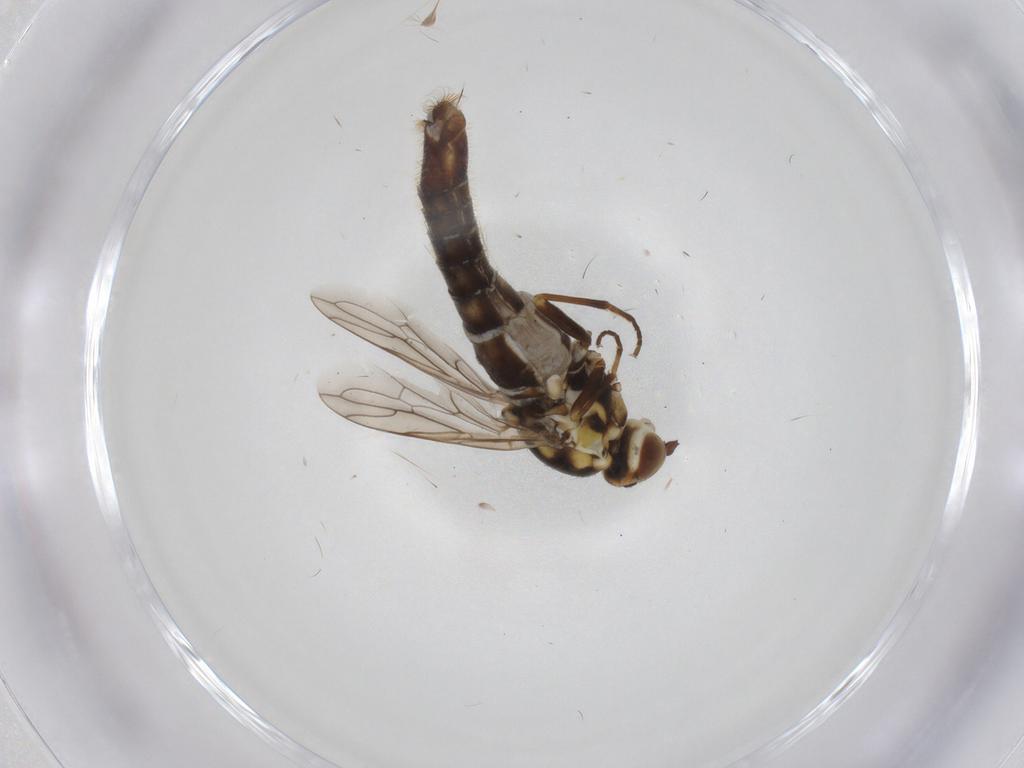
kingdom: Animalia
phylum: Arthropoda
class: Insecta
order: Diptera
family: Scenopinidae
